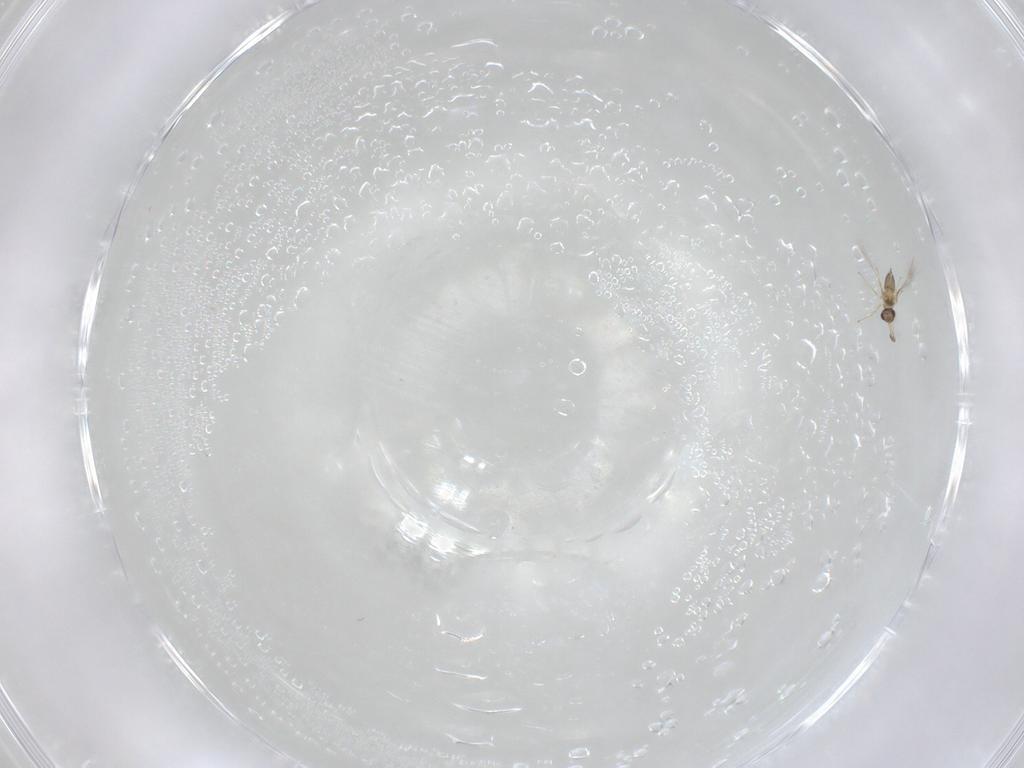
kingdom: Animalia
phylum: Arthropoda
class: Insecta
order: Hymenoptera
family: Mymaridae
